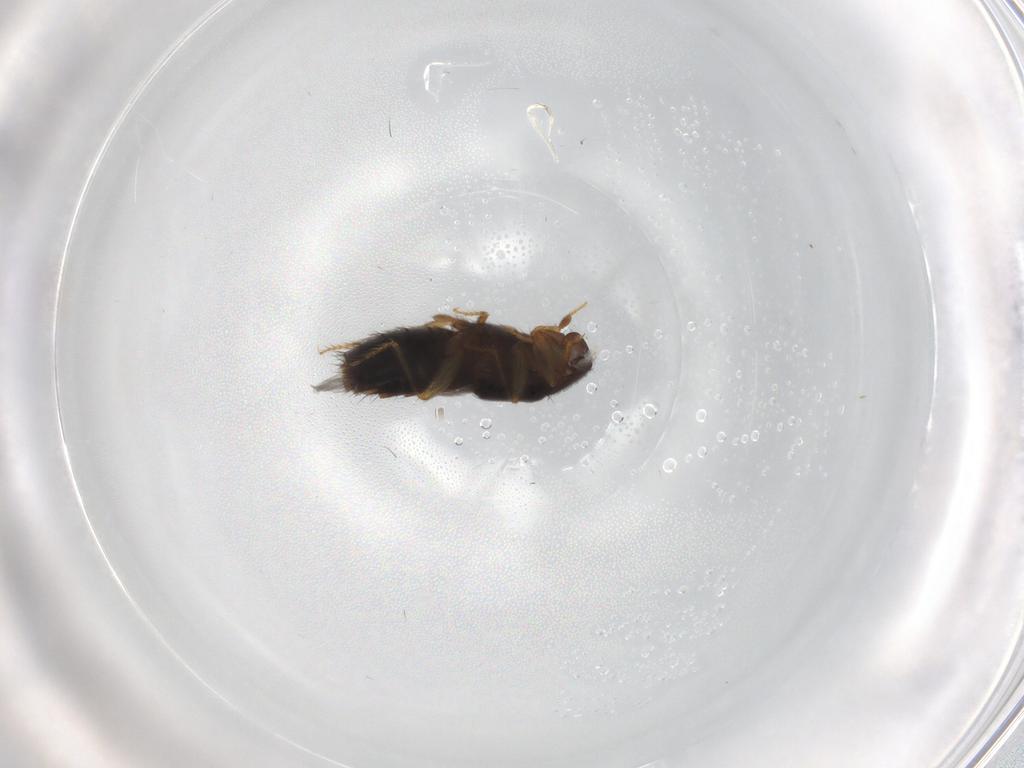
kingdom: Animalia
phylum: Arthropoda
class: Insecta
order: Coleoptera
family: Staphylinidae
